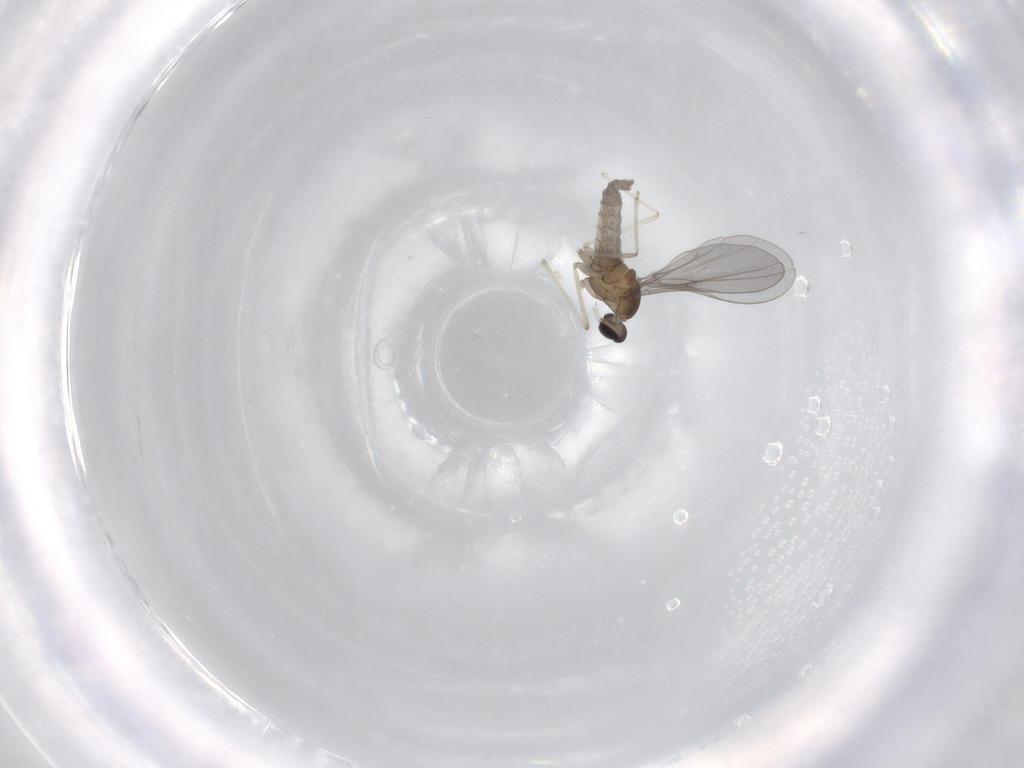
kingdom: Animalia
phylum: Arthropoda
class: Insecta
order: Diptera
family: Cecidomyiidae
